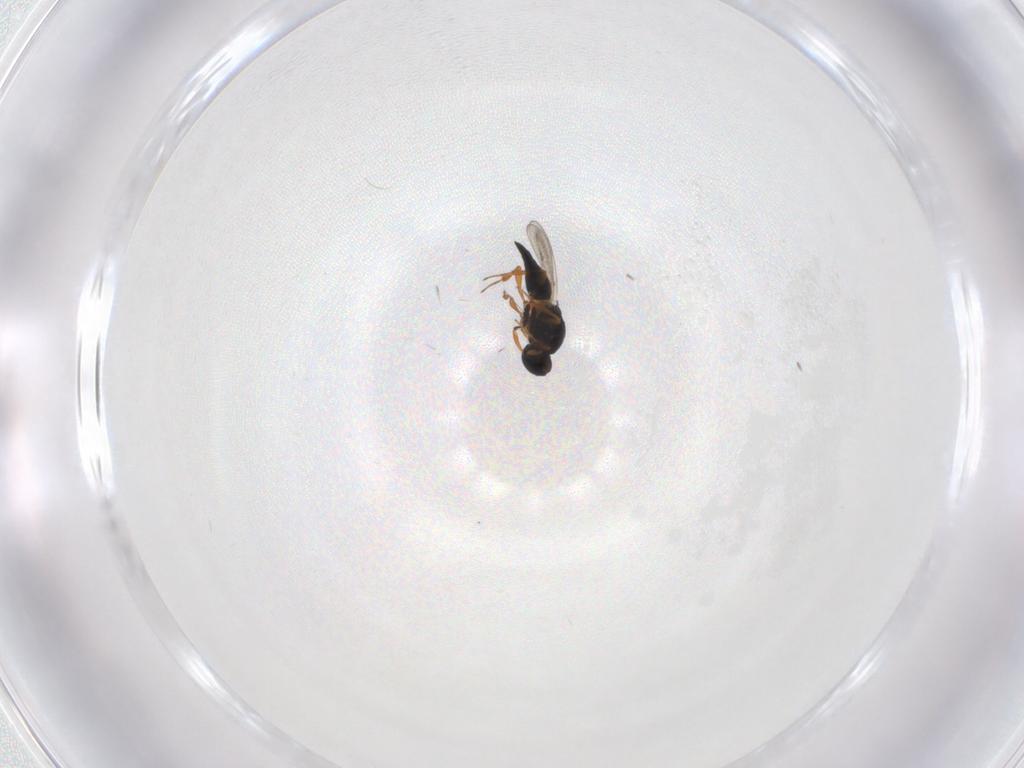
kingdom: Animalia
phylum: Arthropoda
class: Insecta
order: Hymenoptera
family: Platygastridae
